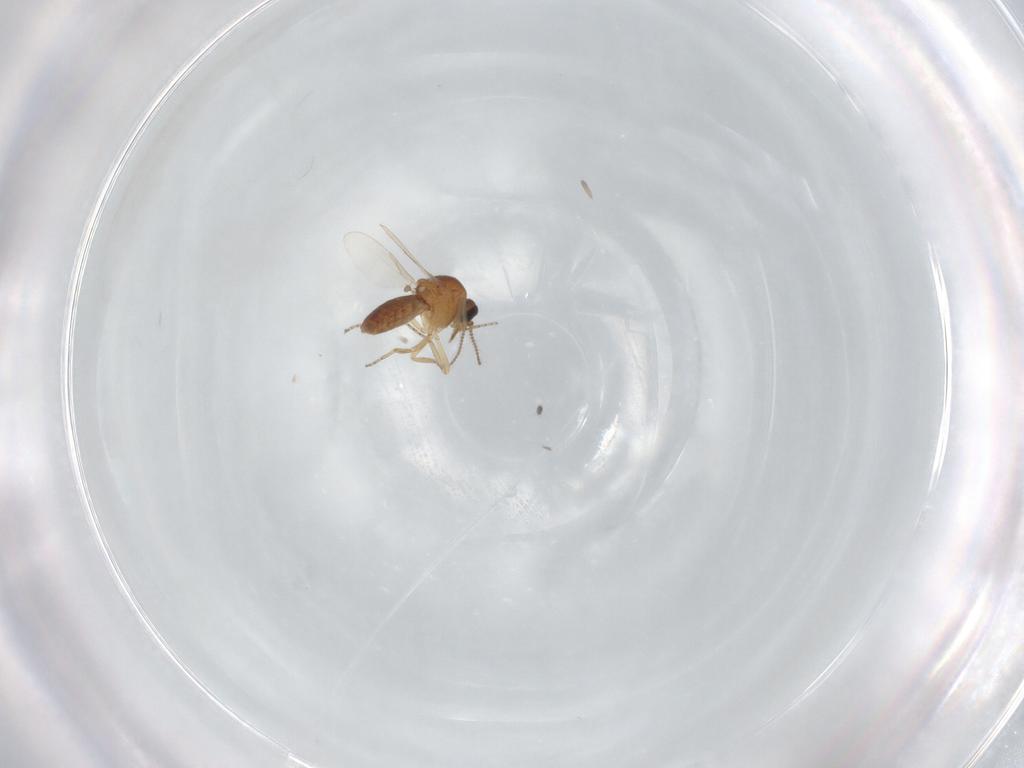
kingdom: Animalia
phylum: Arthropoda
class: Insecta
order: Diptera
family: Ceratopogonidae
